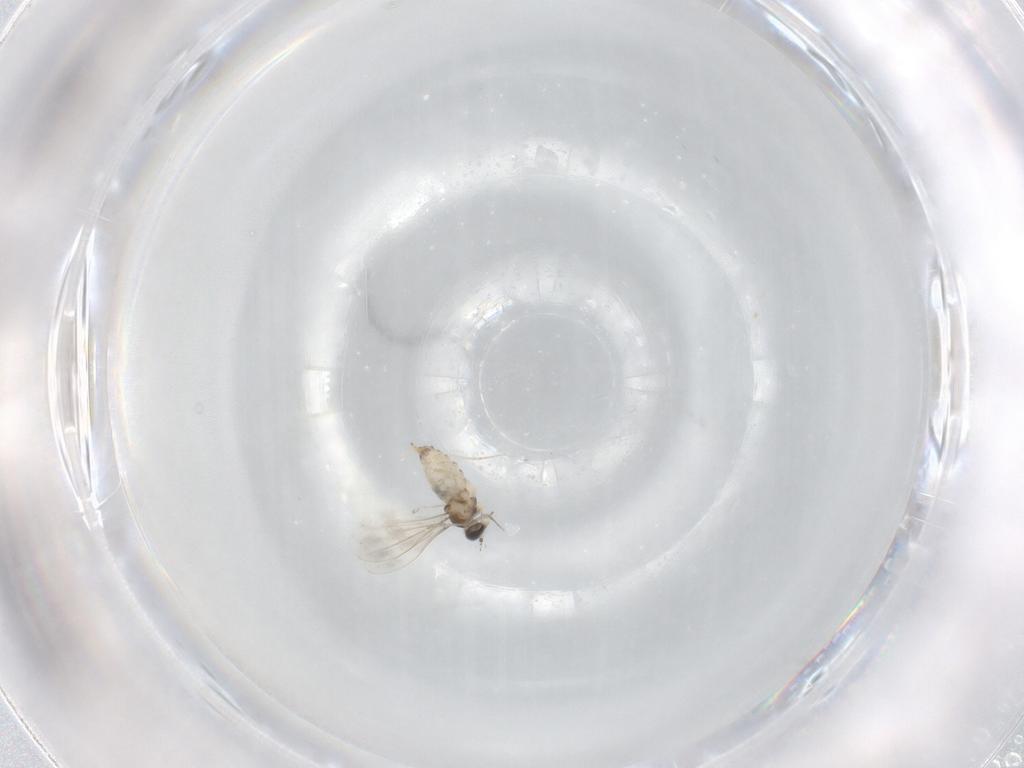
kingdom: Animalia
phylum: Arthropoda
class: Insecta
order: Diptera
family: Cecidomyiidae
